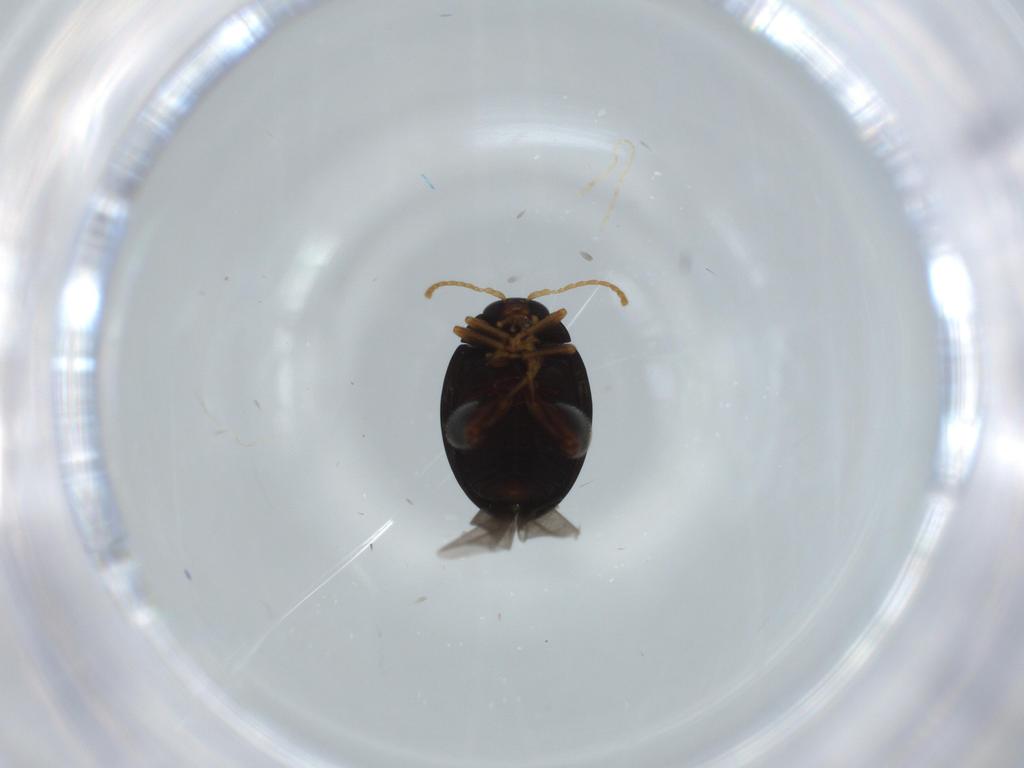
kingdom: Animalia
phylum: Arthropoda
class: Insecta
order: Coleoptera
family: Chrysomelidae
